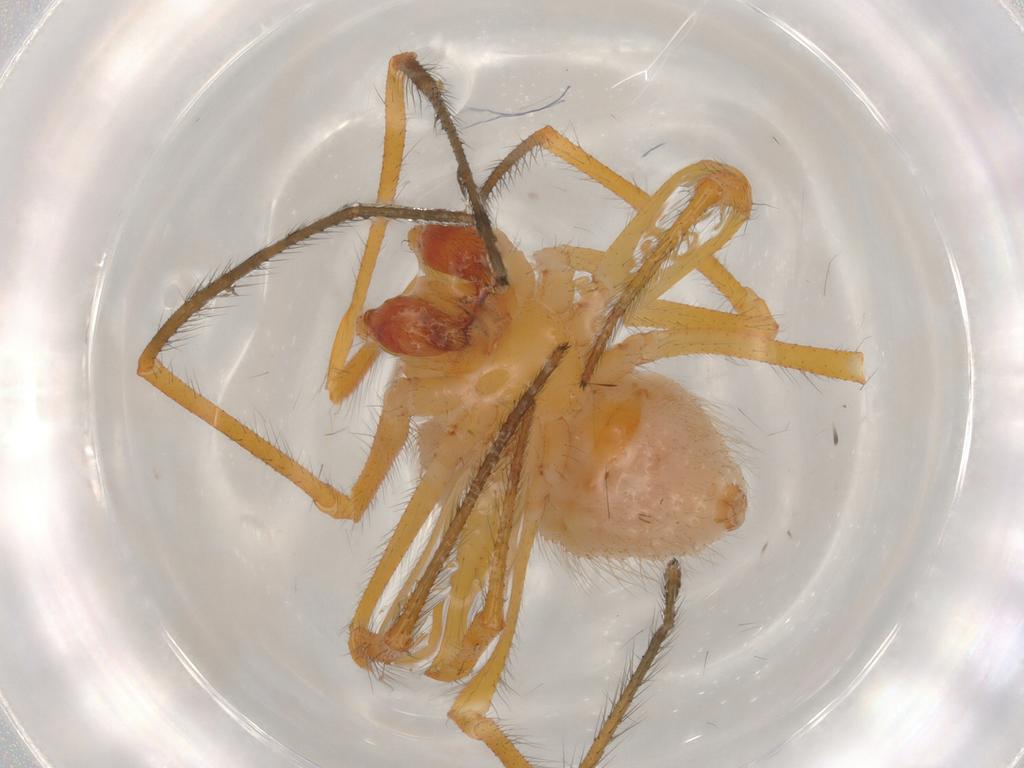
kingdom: Animalia
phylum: Arthropoda
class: Arachnida
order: Araneae
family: Theridiidae
